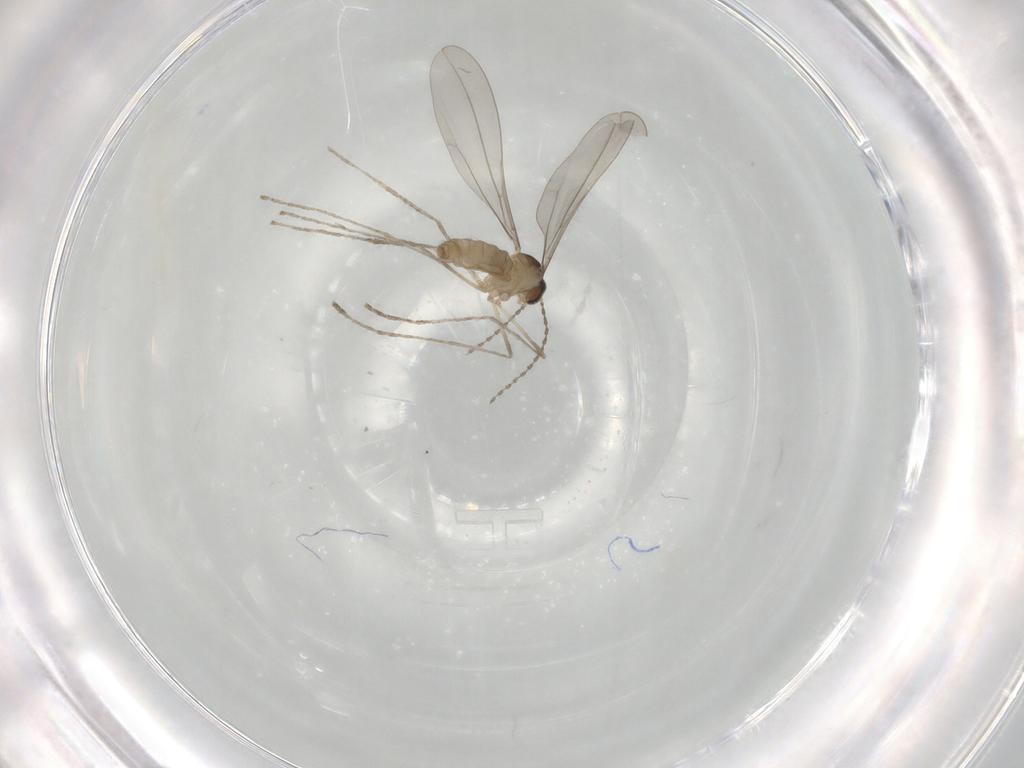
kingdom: Animalia
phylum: Arthropoda
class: Insecta
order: Diptera
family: Cecidomyiidae
